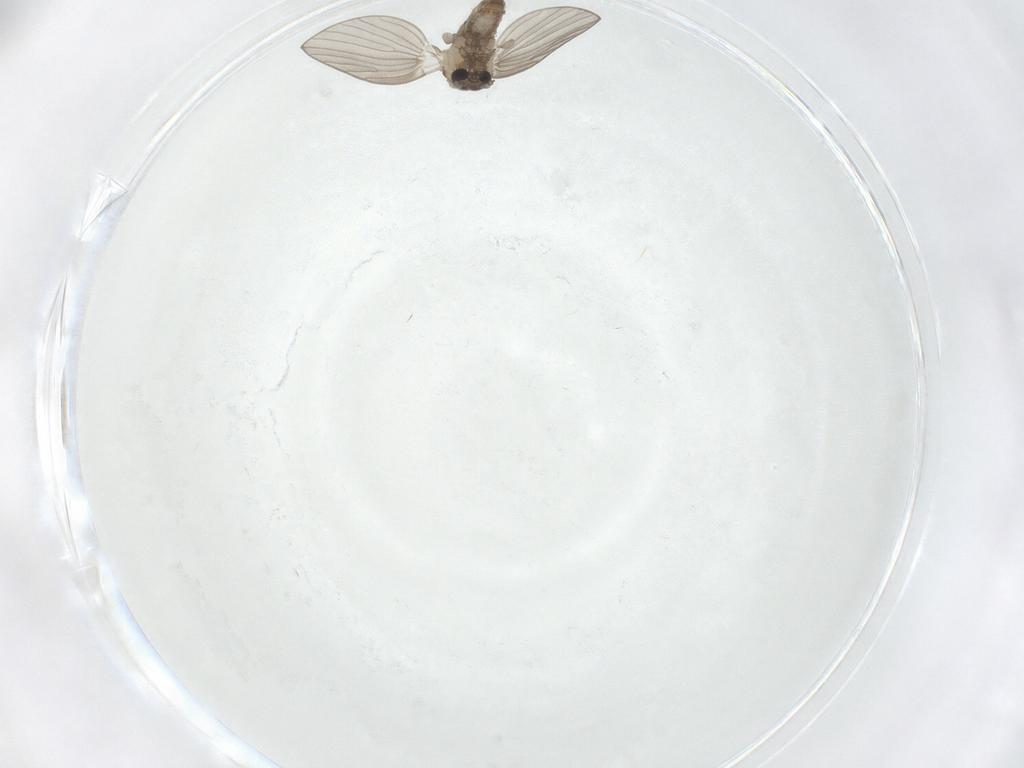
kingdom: Animalia
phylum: Arthropoda
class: Insecta
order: Diptera
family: Psychodidae
